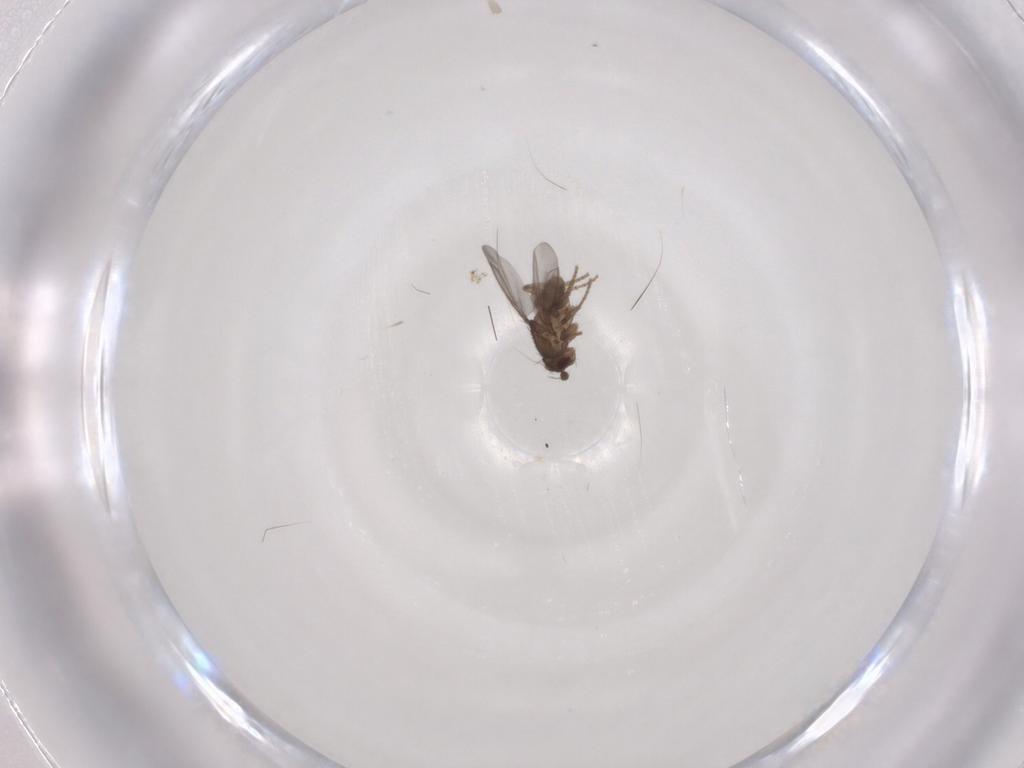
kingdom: Animalia
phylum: Arthropoda
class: Insecta
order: Diptera
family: Sphaeroceridae
